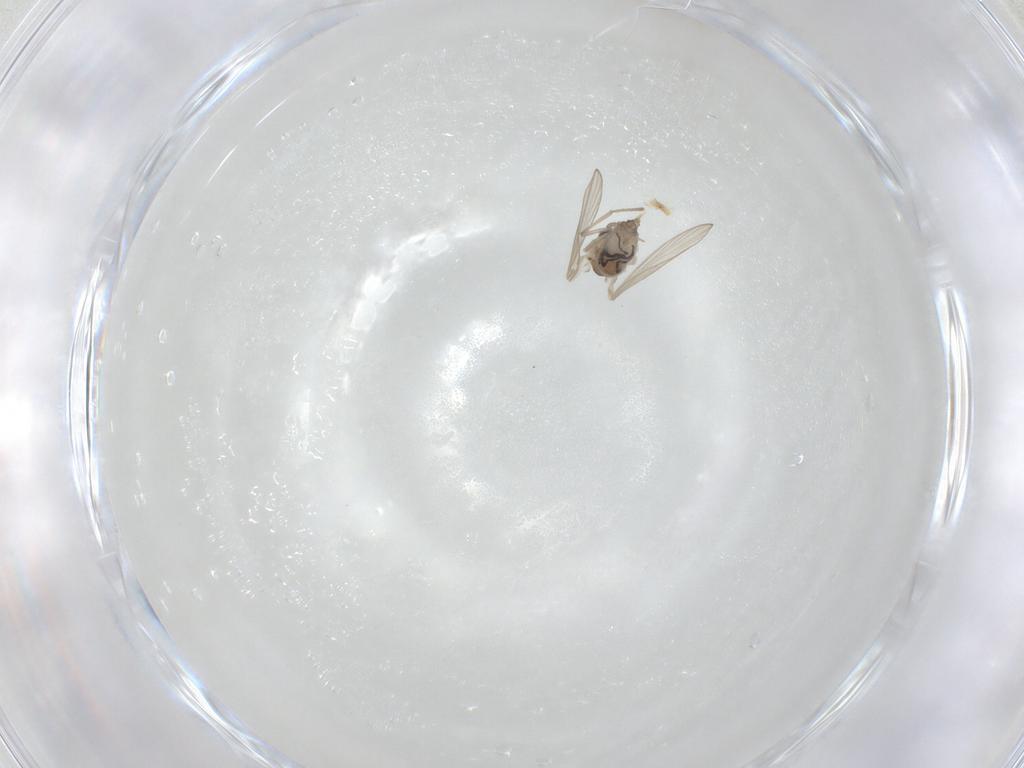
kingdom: Animalia
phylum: Arthropoda
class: Insecta
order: Diptera
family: Psychodidae
